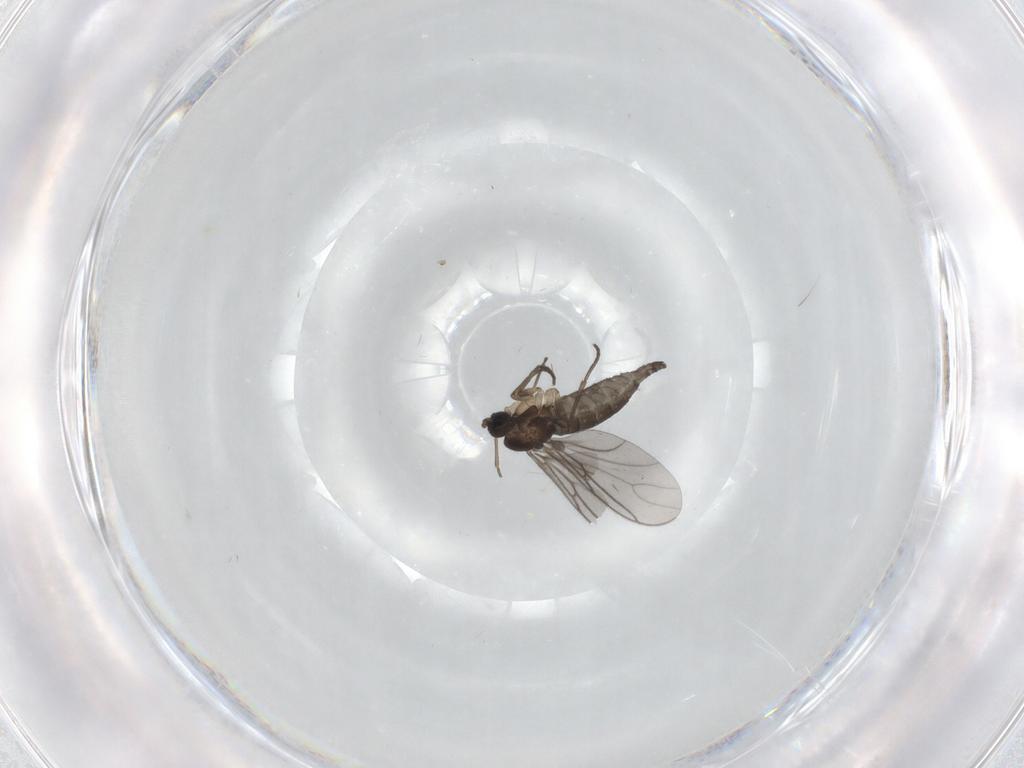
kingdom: Animalia
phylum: Arthropoda
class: Insecta
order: Diptera
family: Sciaridae
